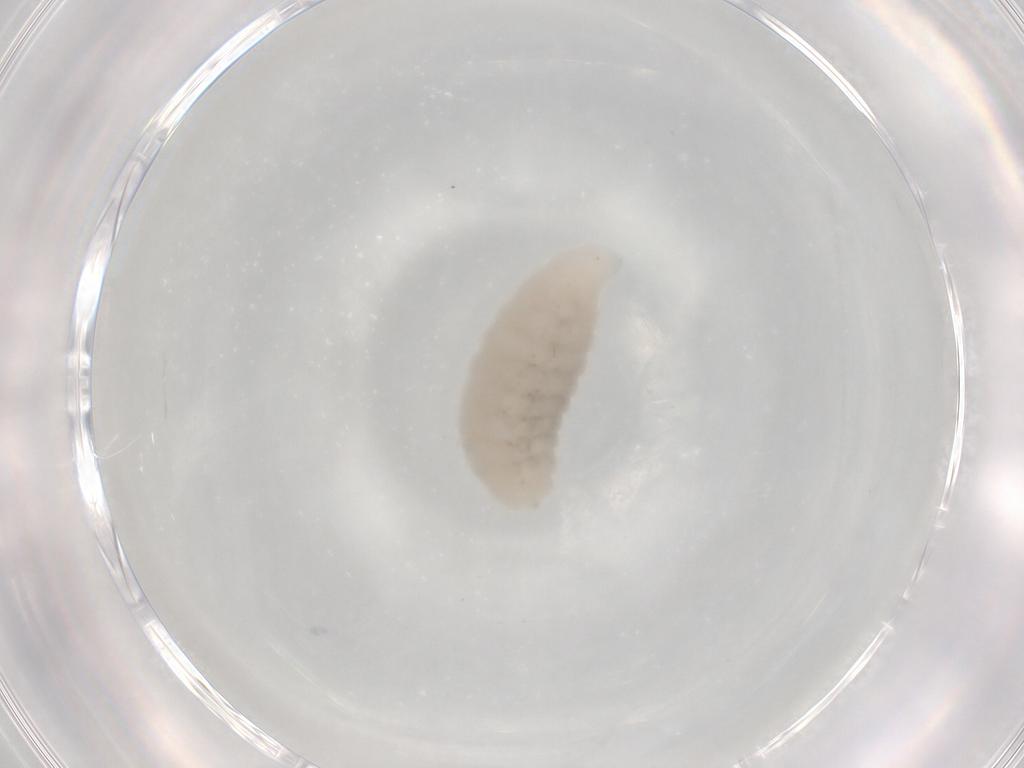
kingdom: Animalia
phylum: Arthropoda
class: Insecta
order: Hymenoptera
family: Eulophidae
